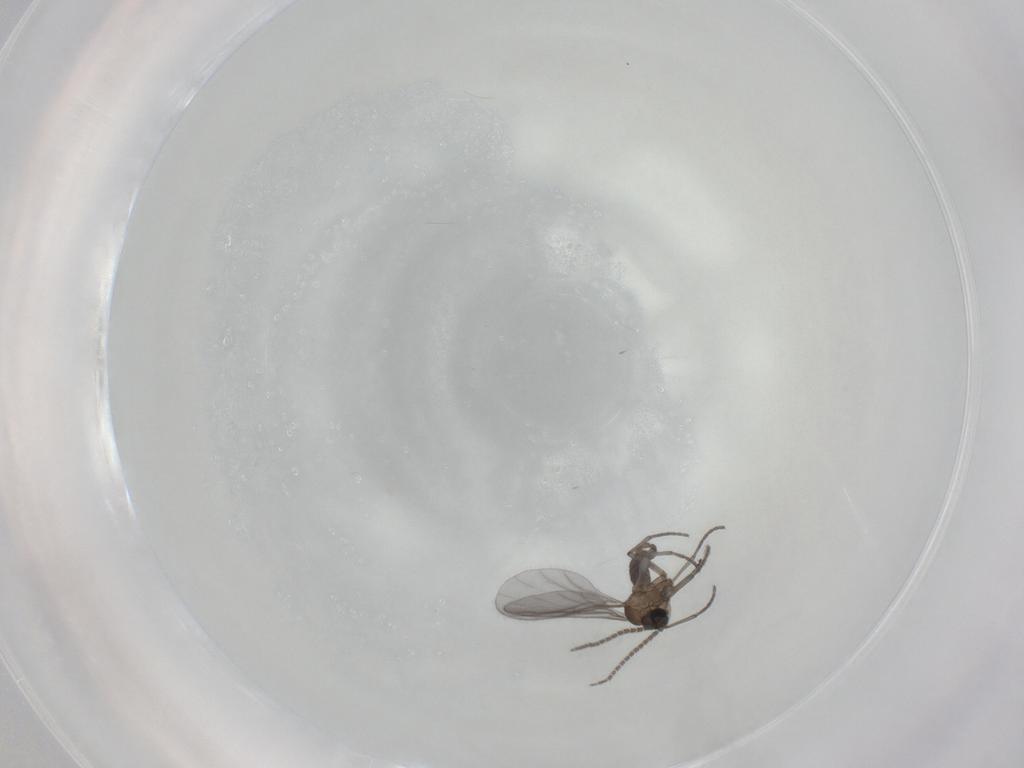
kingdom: Animalia
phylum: Arthropoda
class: Insecta
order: Diptera
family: Sciaridae
